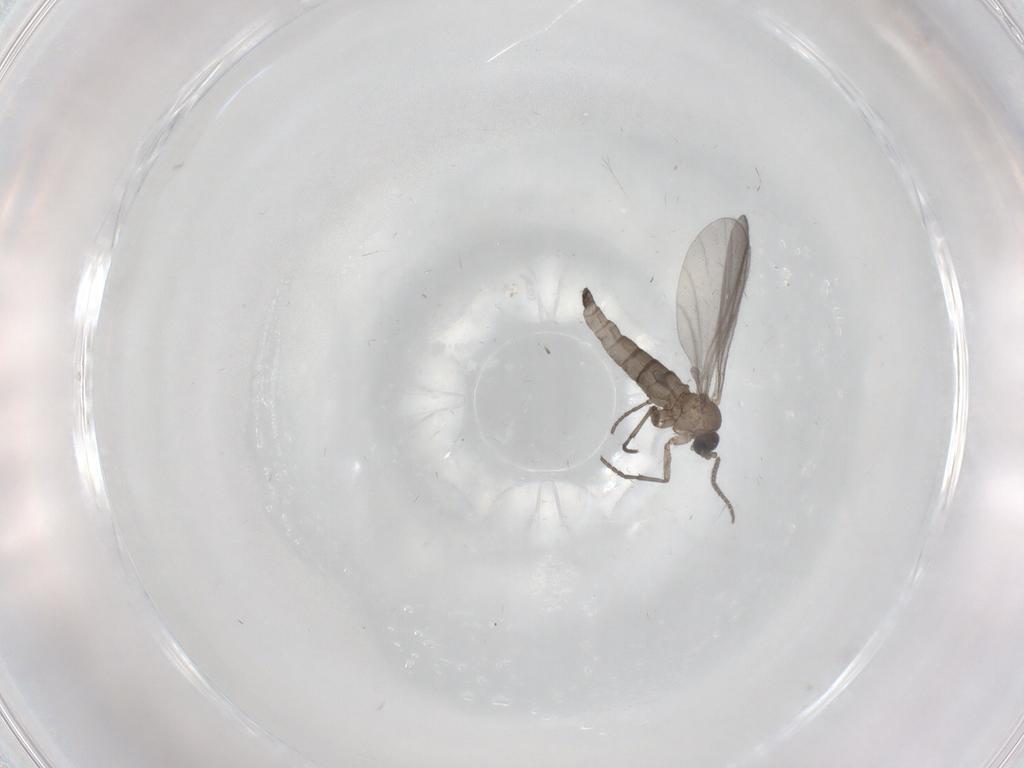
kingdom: Animalia
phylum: Arthropoda
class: Insecta
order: Diptera
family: Sciaridae
